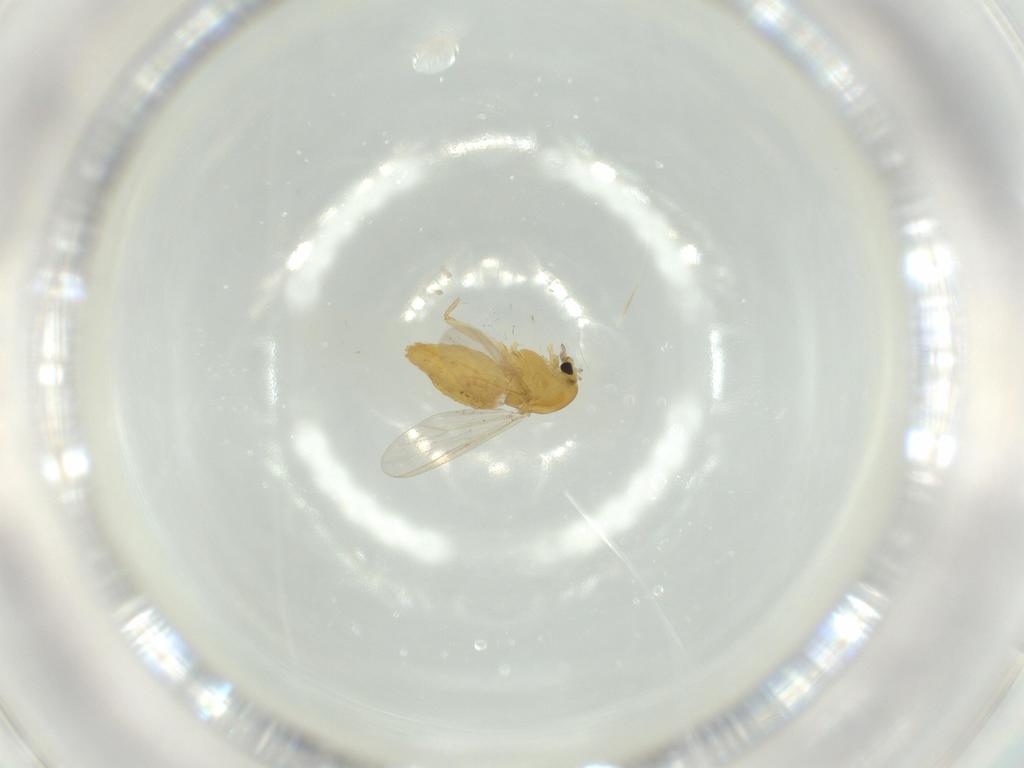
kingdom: Animalia
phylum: Arthropoda
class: Insecta
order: Diptera
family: Chironomidae
